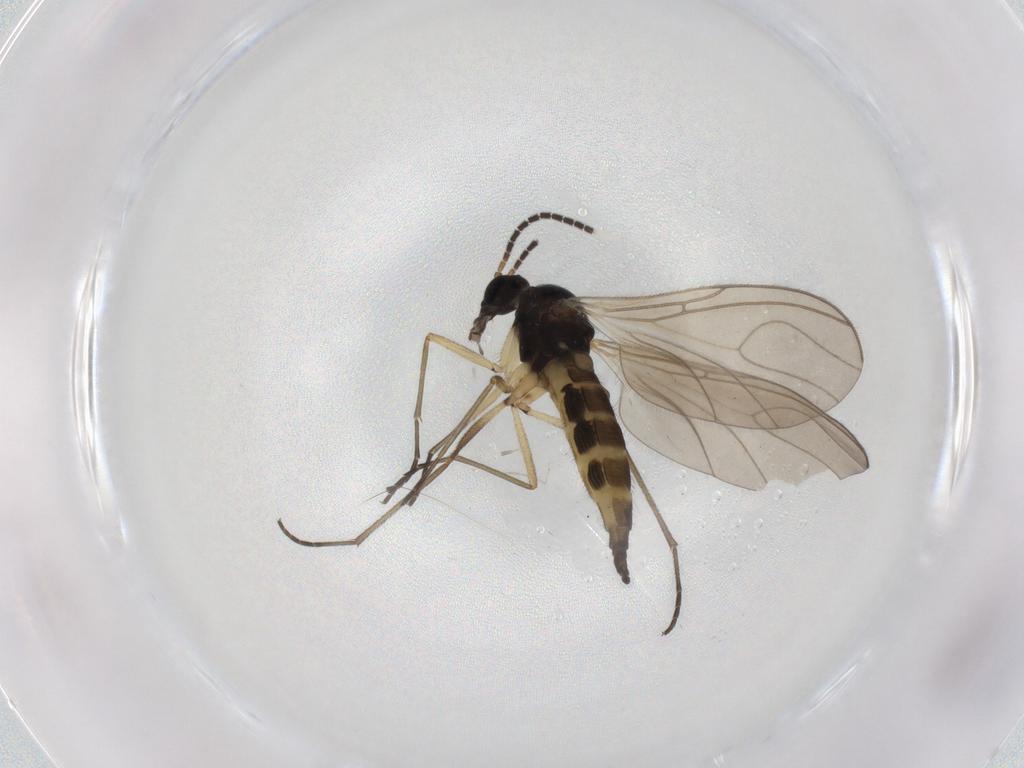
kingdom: Animalia
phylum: Arthropoda
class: Insecta
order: Diptera
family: Sciaridae
